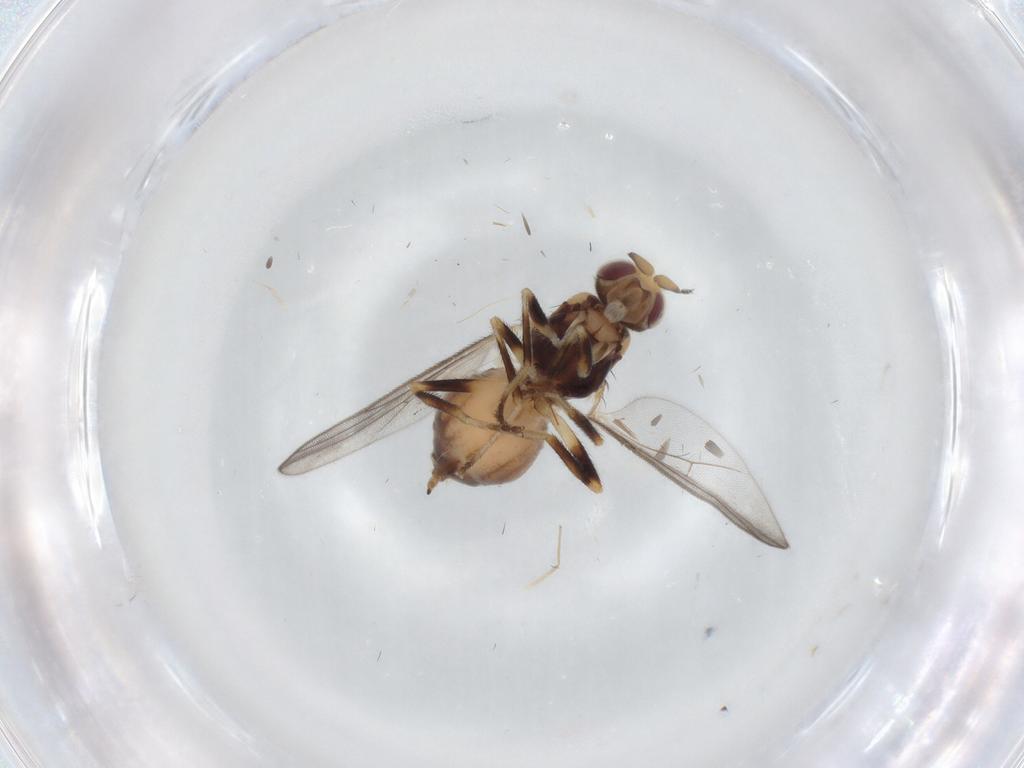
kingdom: Animalia
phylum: Arthropoda
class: Insecta
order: Diptera
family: Chloropidae
